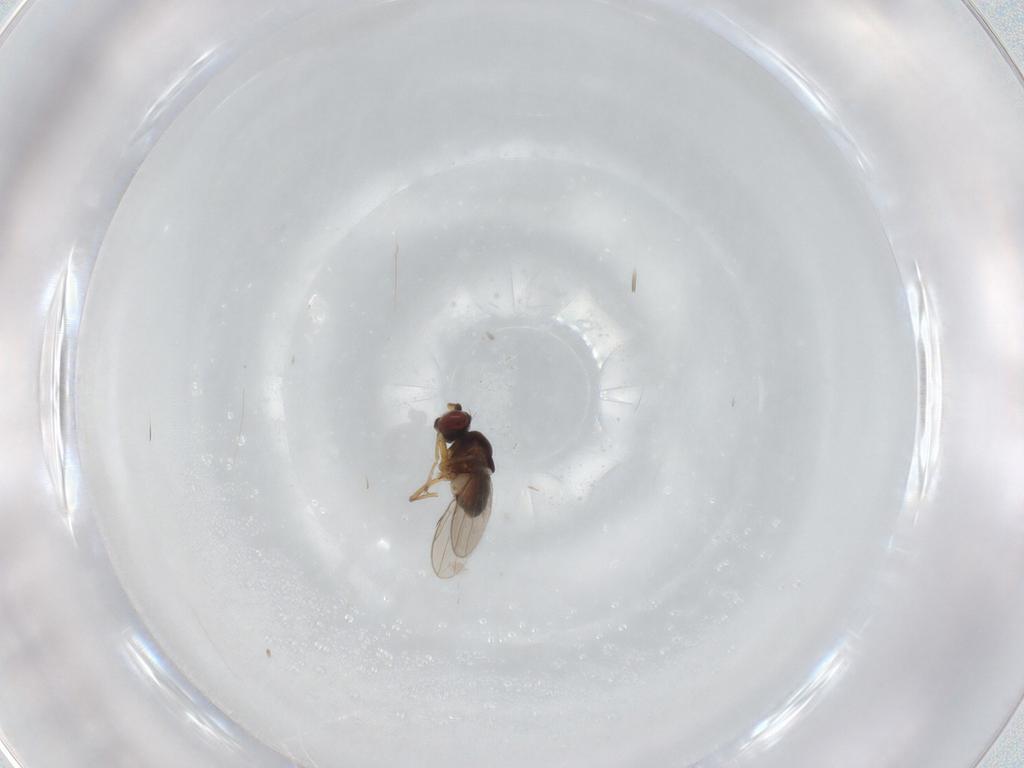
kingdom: Animalia
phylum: Arthropoda
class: Insecta
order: Diptera
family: Ephydridae
